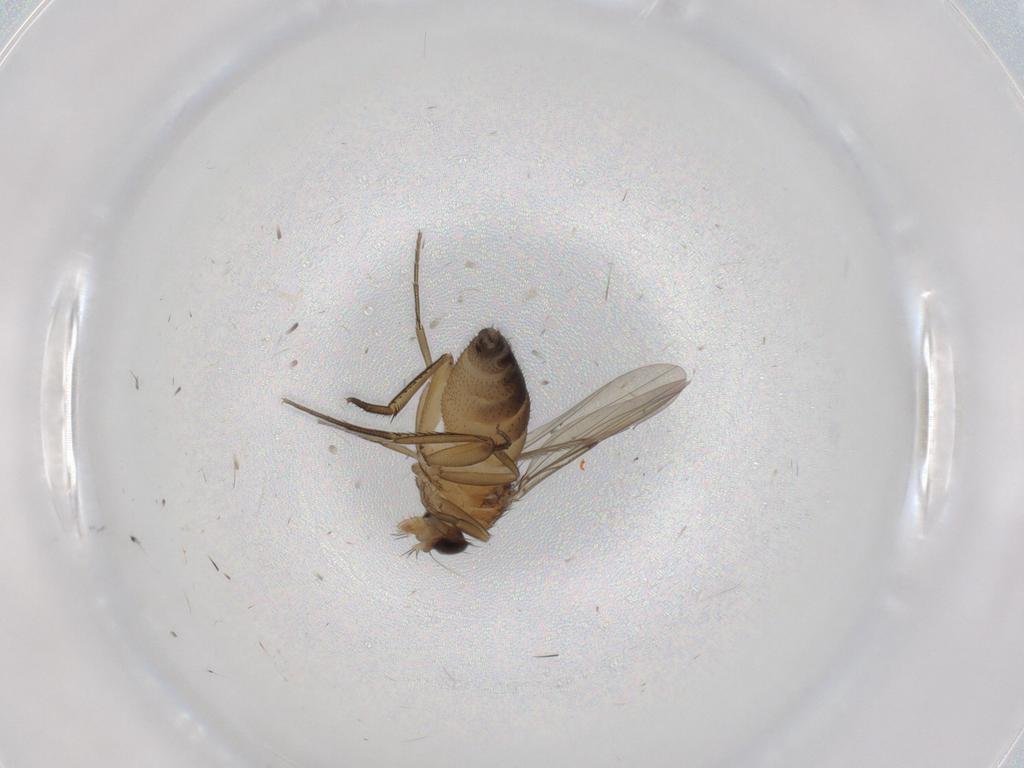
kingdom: Animalia
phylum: Arthropoda
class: Insecta
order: Diptera
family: Phoridae
